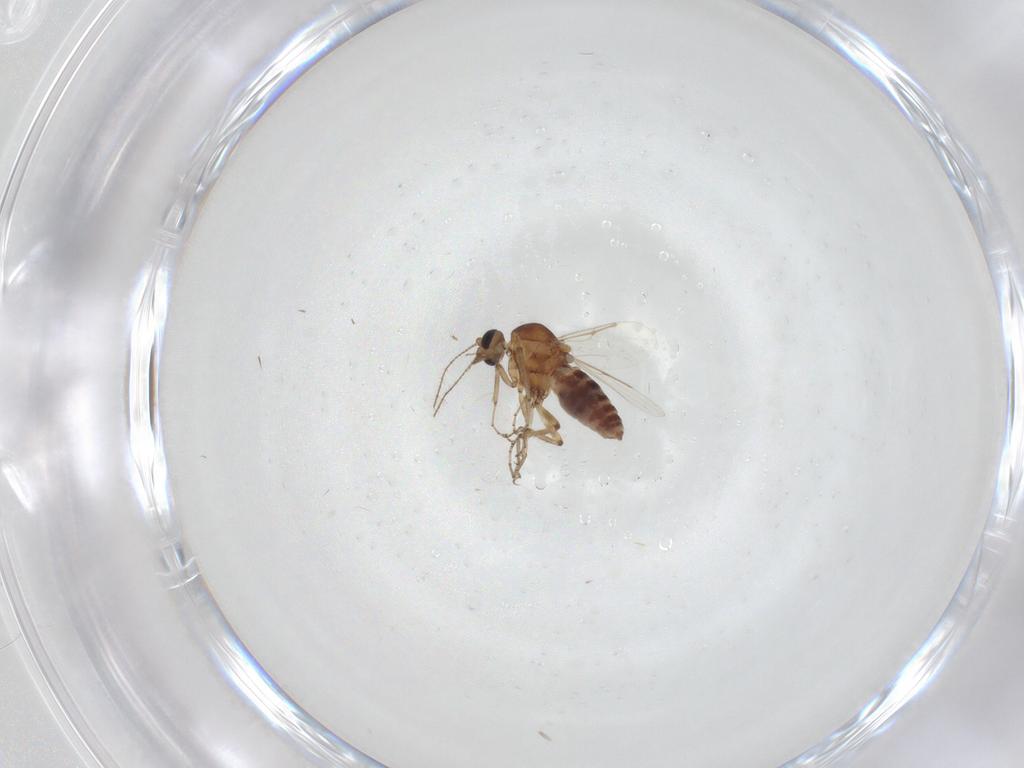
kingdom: Animalia
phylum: Arthropoda
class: Insecta
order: Diptera
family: Ceratopogonidae
